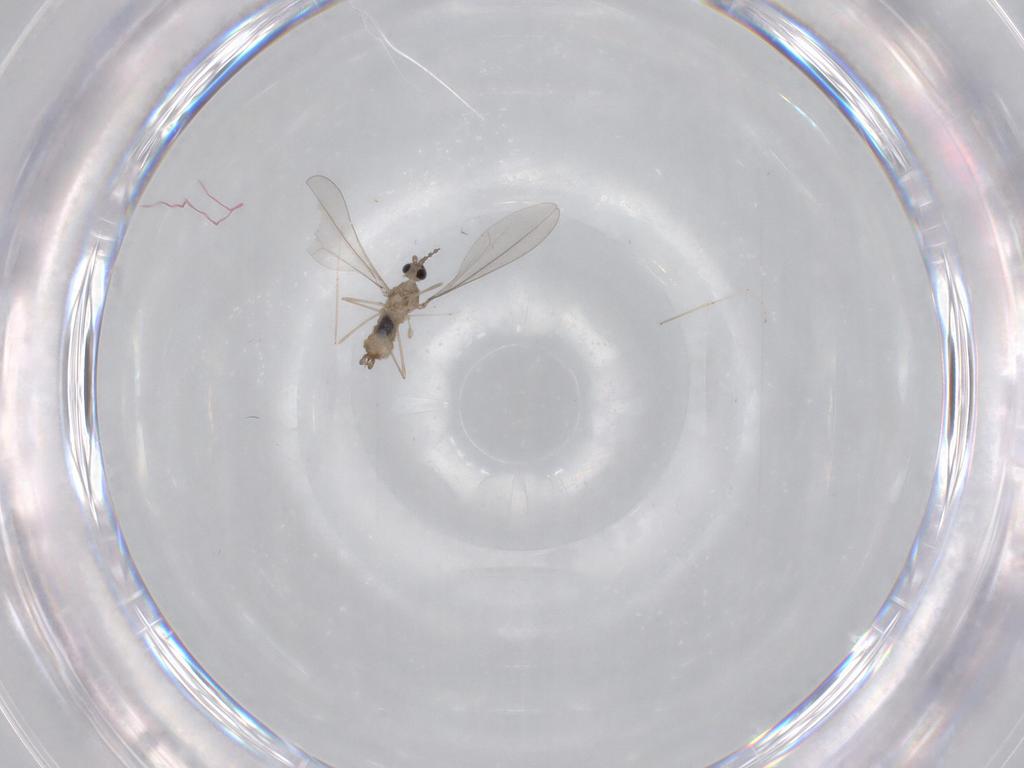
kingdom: Animalia
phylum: Arthropoda
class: Insecta
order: Diptera
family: Cecidomyiidae
